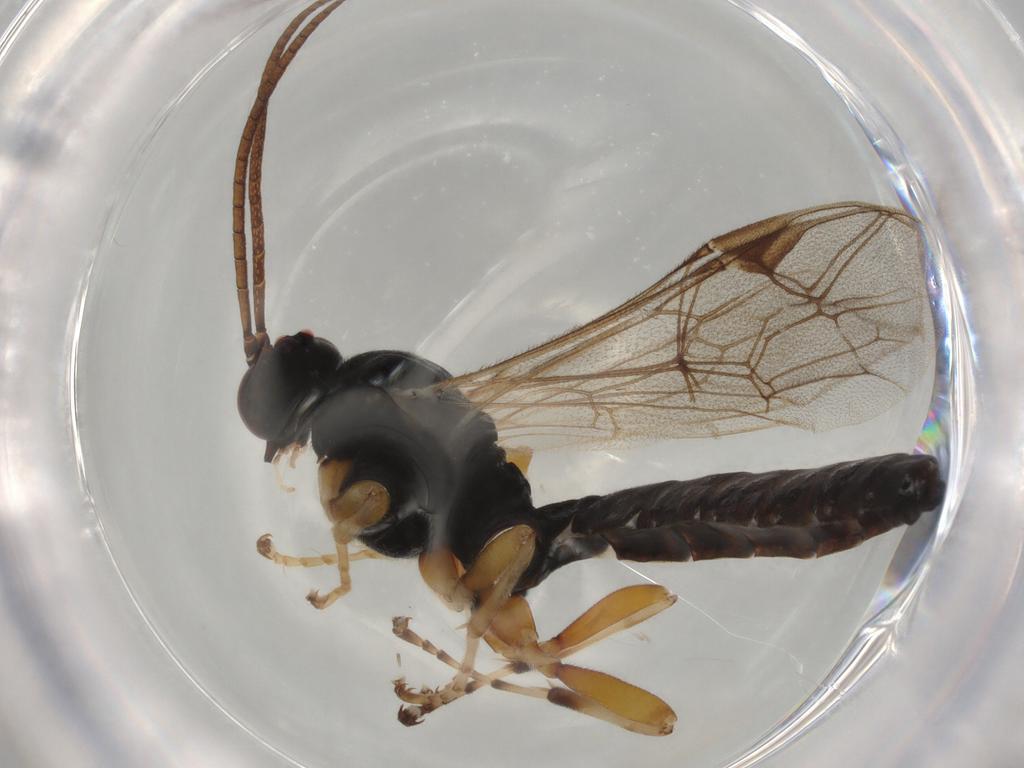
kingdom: Animalia
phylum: Arthropoda
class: Insecta
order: Hymenoptera
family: Ichneumonidae
